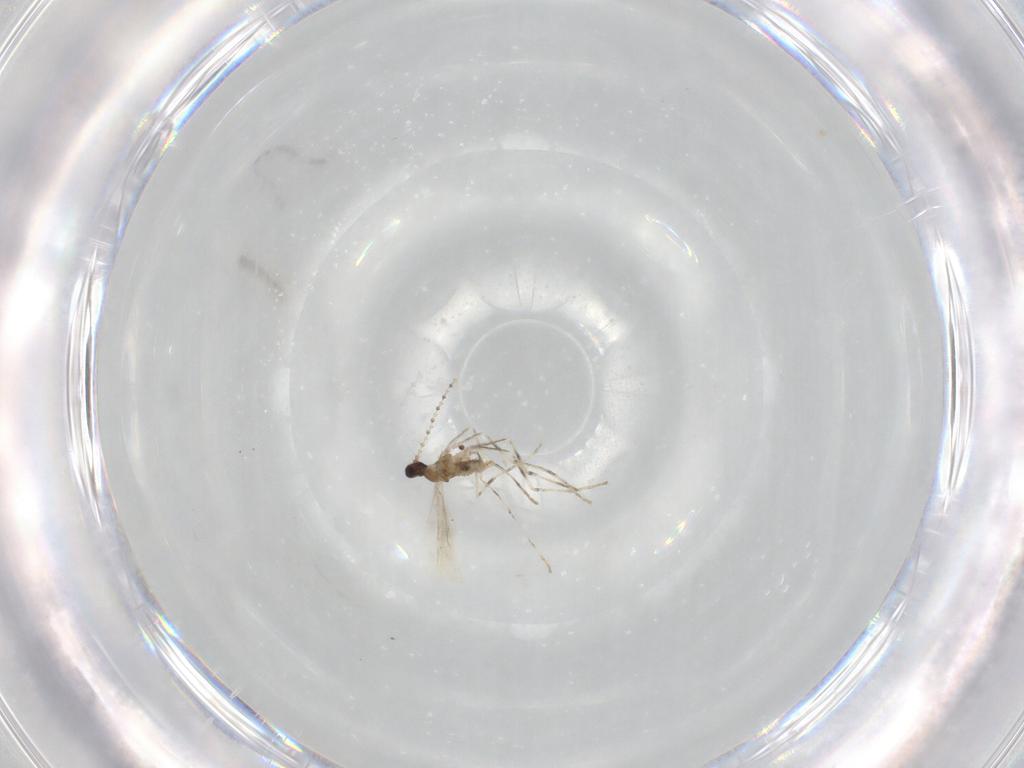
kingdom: Animalia
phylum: Arthropoda
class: Insecta
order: Diptera
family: Cecidomyiidae
